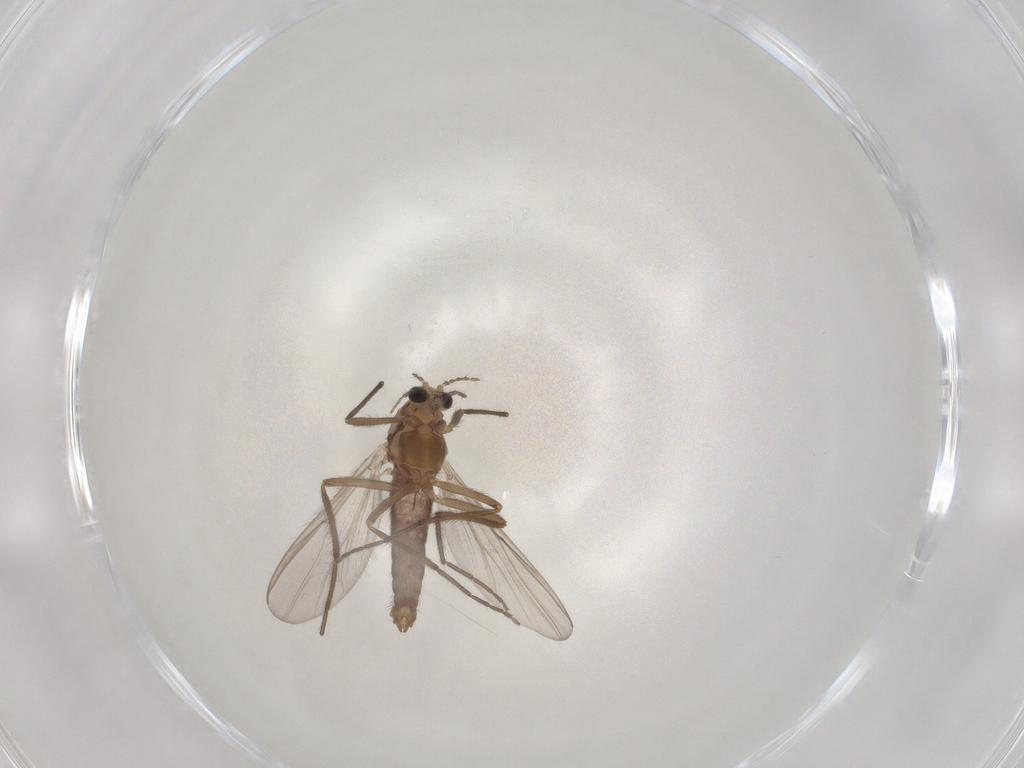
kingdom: Animalia
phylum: Arthropoda
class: Insecta
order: Diptera
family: Chironomidae
